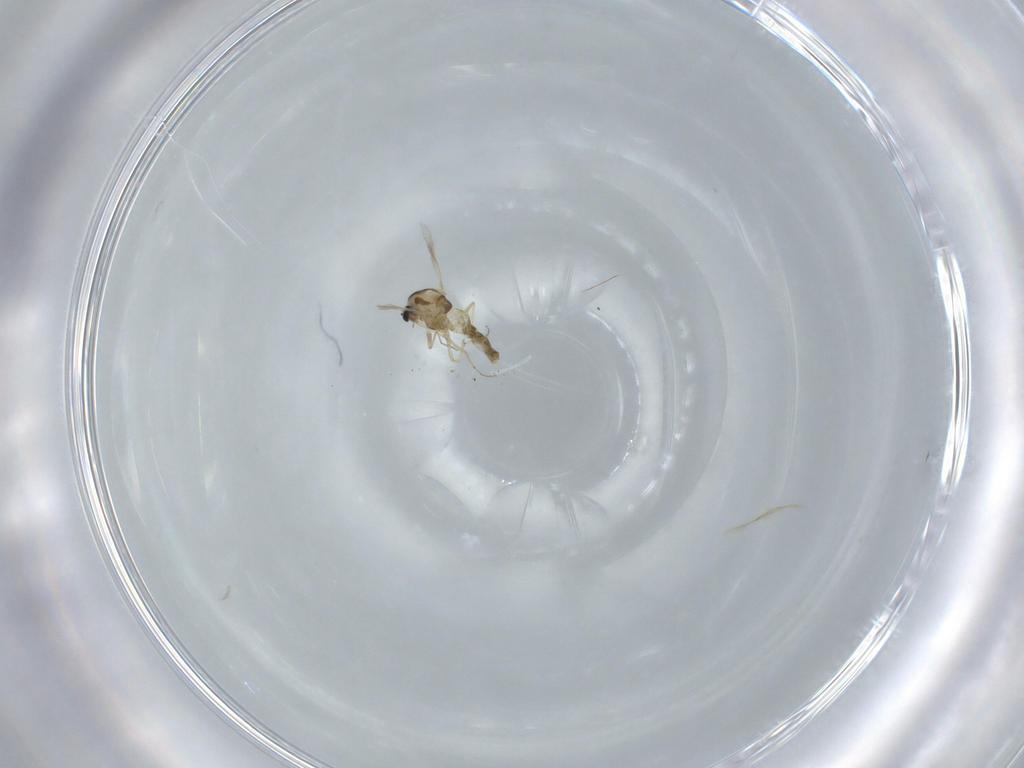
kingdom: Animalia
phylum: Arthropoda
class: Insecta
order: Diptera
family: Chironomidae
